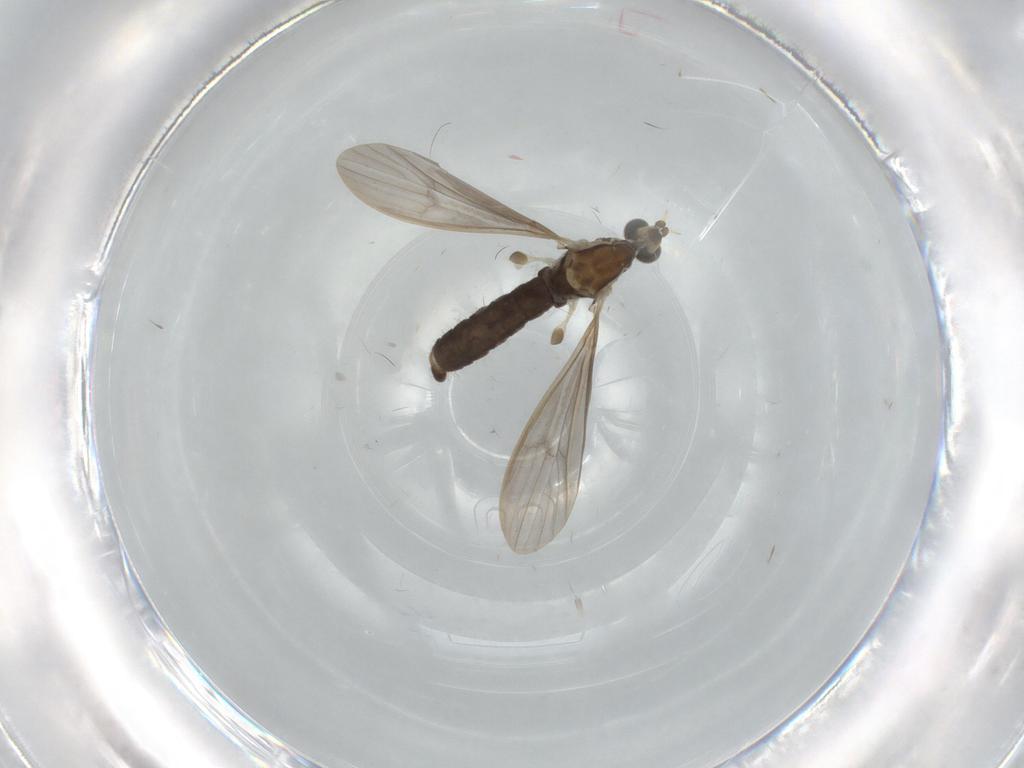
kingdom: Animalia
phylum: Arthropoda
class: Insecta
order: Diptera
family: Limoniidae
